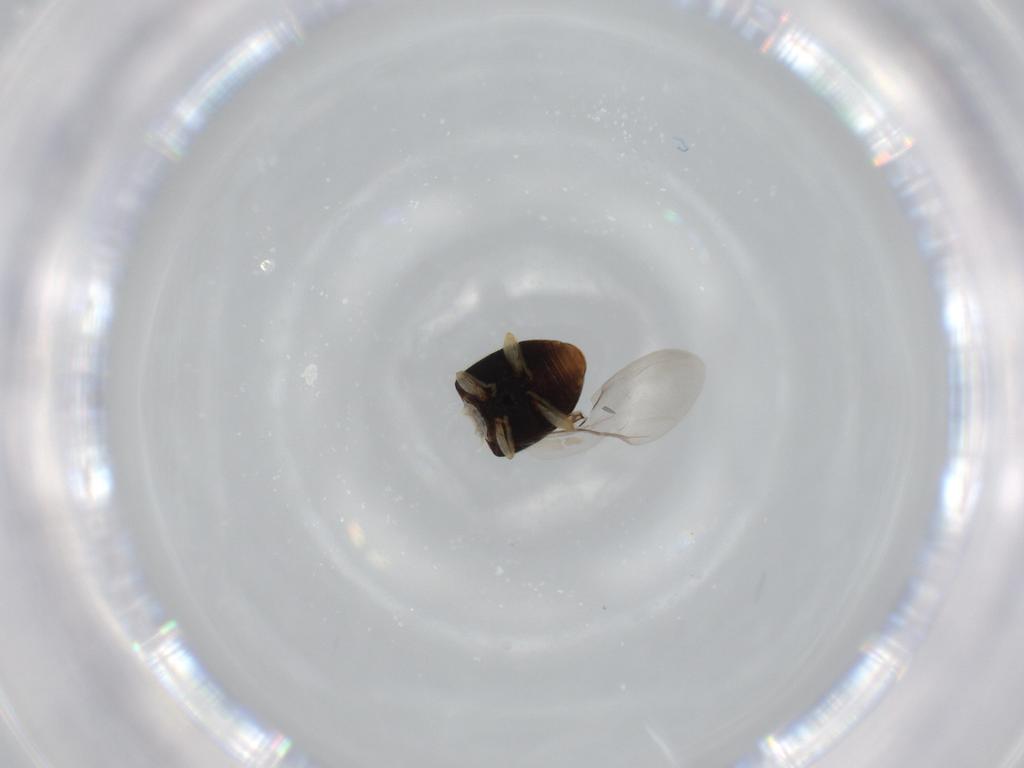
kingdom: Animalia
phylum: Arthropoda
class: Insecta
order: Coleoptera
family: Coccinellidae
